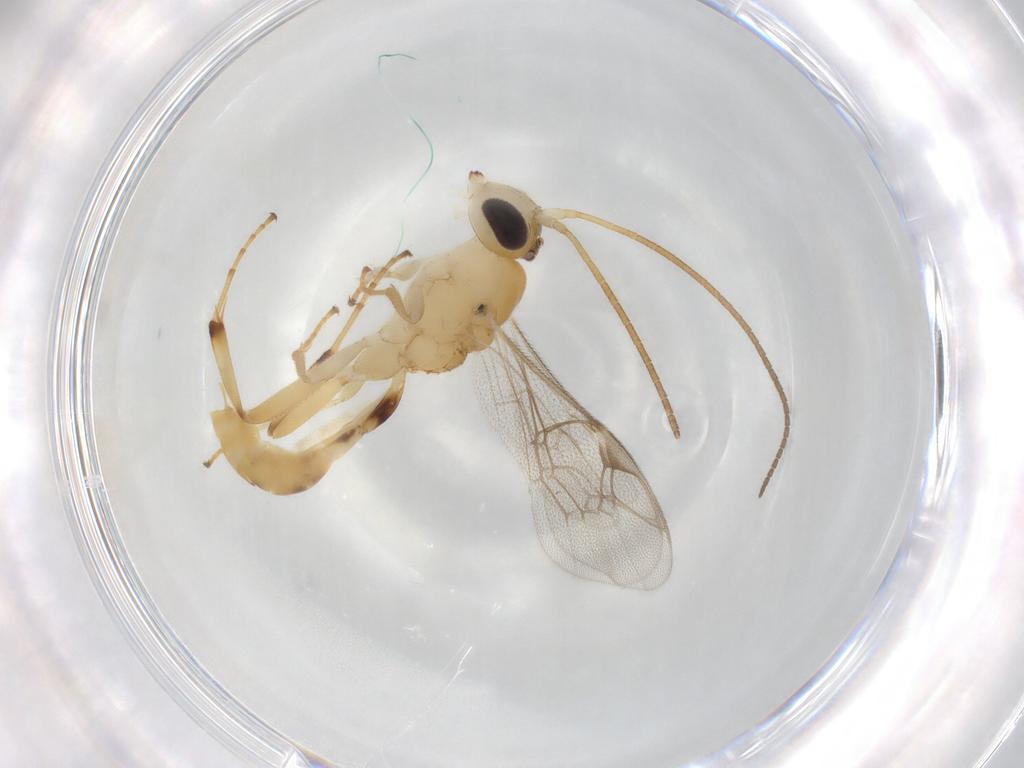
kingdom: Animalia
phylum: Arthropoda
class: Insecta
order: Hymenoptera
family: Ichneumonidae
